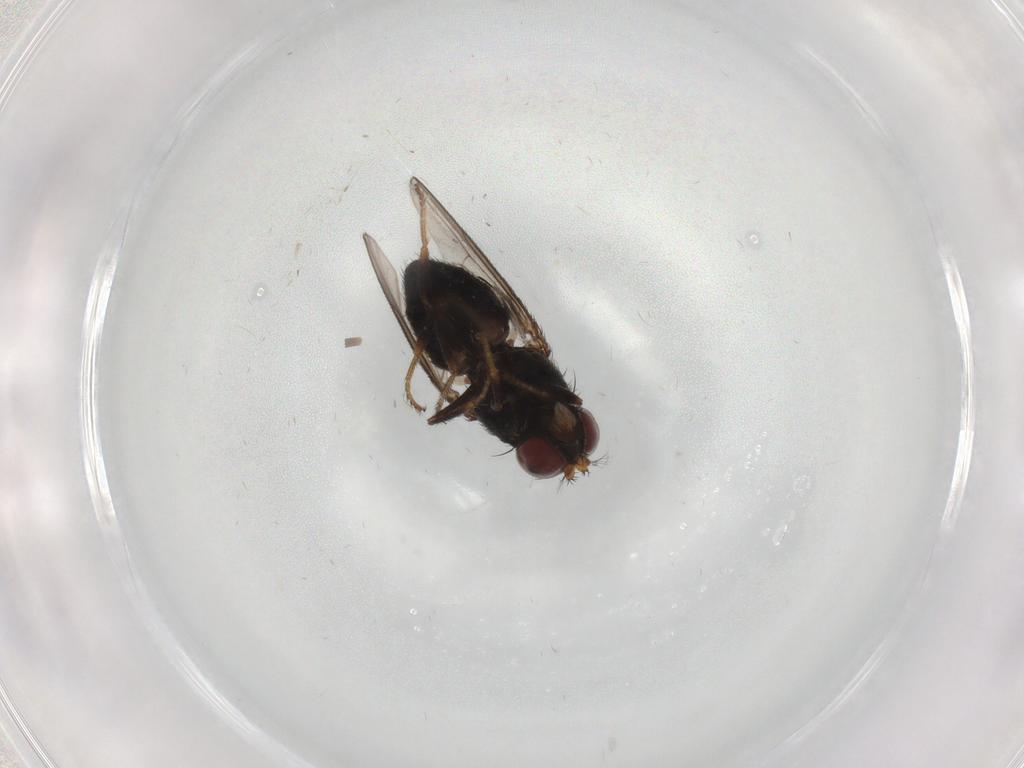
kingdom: Animalia
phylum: Arthropoda
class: Insecta
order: Diptera
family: Ephydridae
